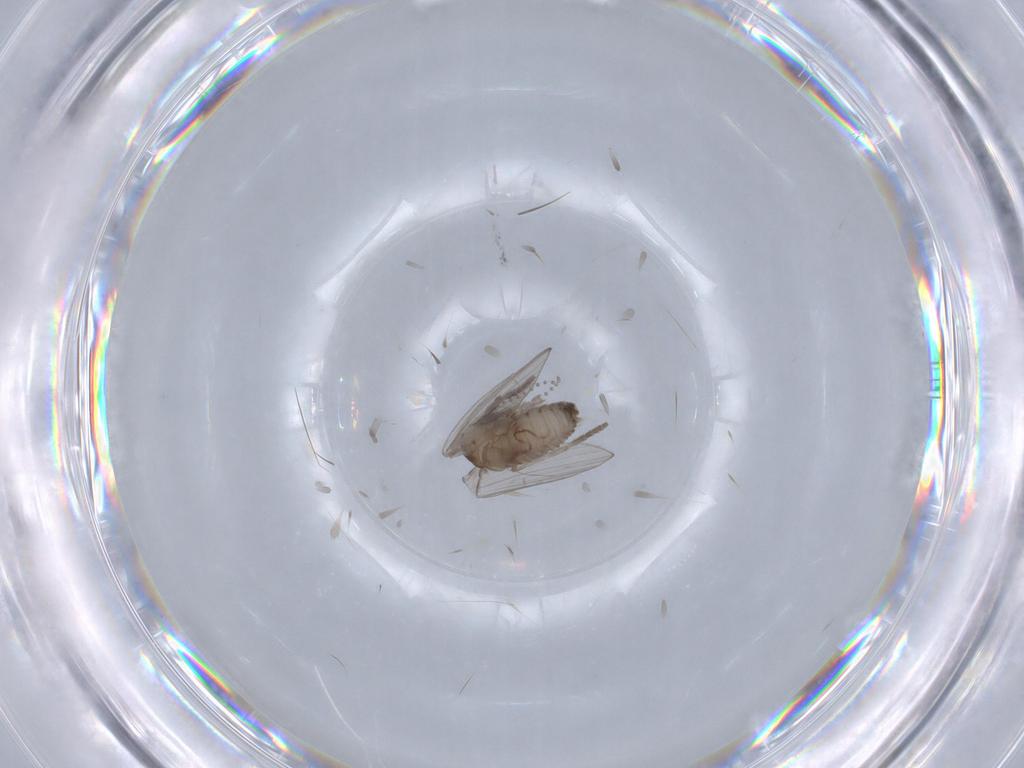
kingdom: Animalia
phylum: Arthropoda
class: Insecta
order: Diptera
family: Psychodidae
